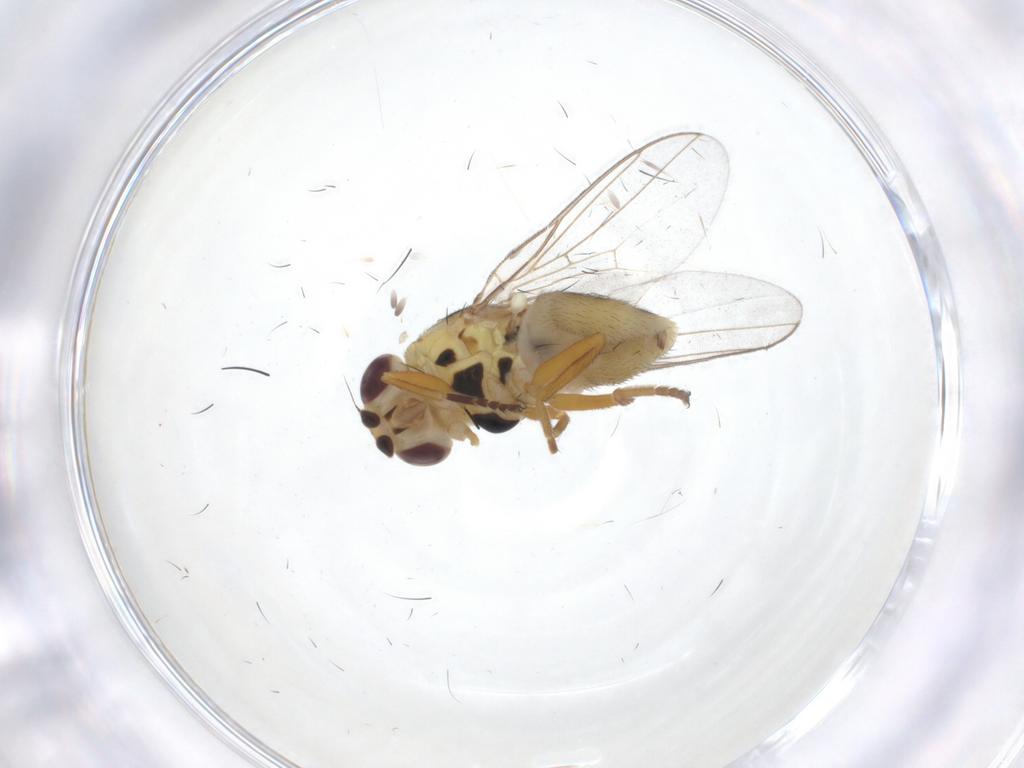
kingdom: Animalia
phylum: Arthropoda
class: Insecta
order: Diptera
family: Chloropidae
